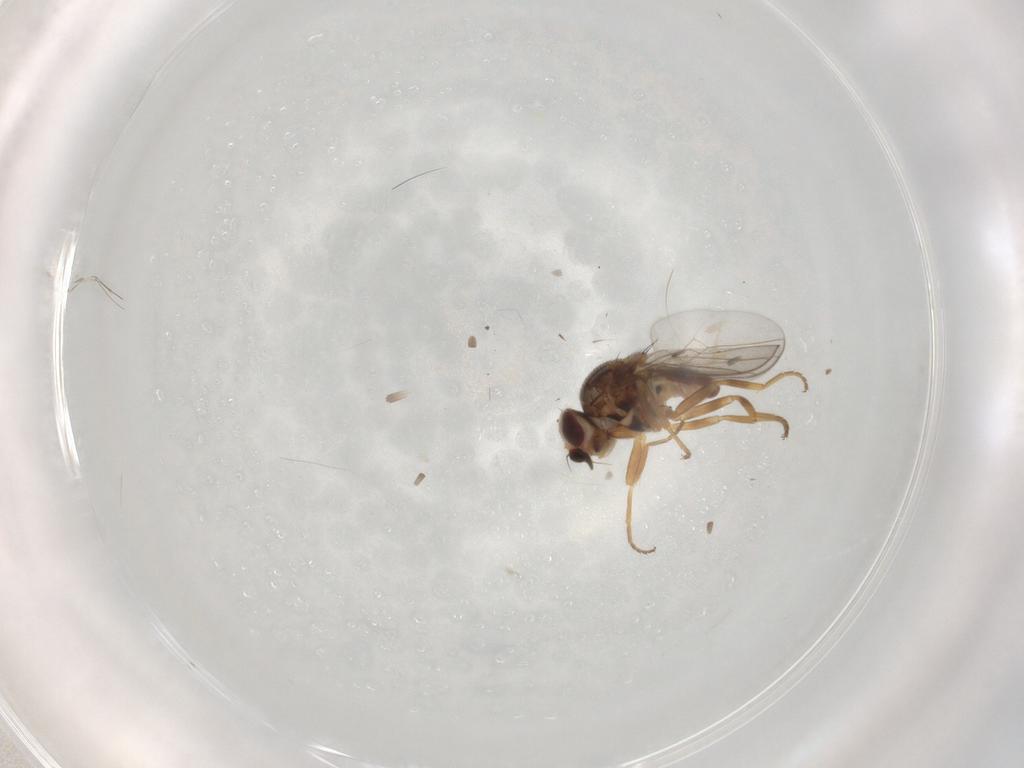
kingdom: Animalia
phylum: Arthropoda
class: Insecta
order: Diptera
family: Chloropidae
